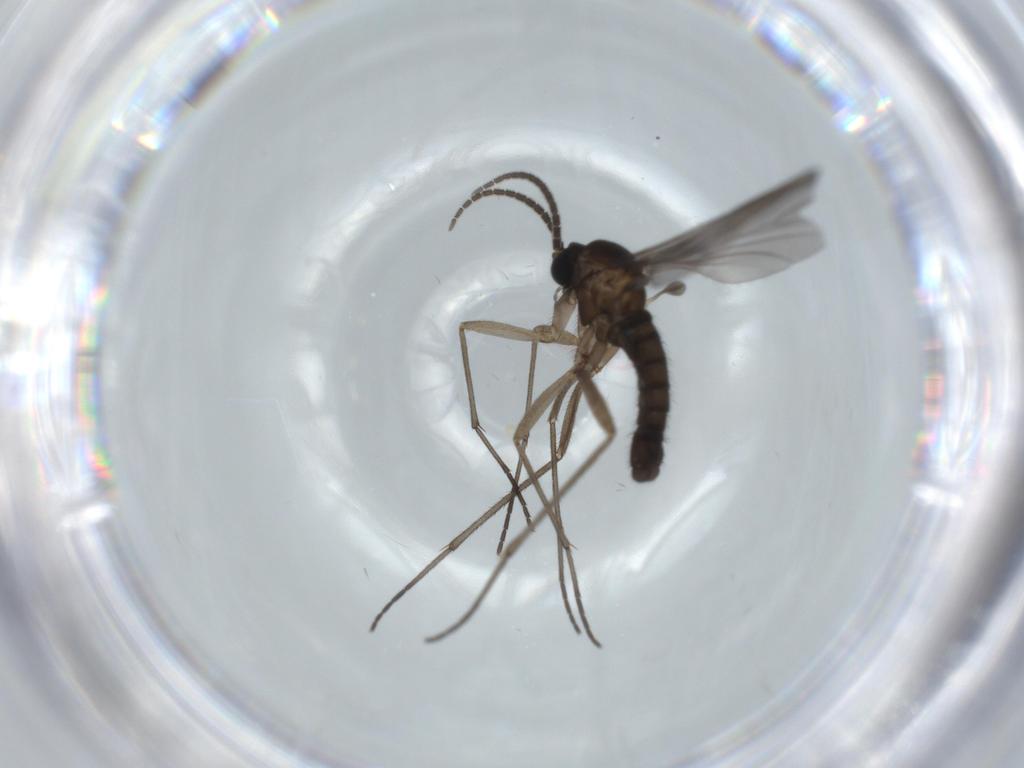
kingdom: Animalia
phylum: Arthropoda
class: Insecta
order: Diptera
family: Sciaridae
